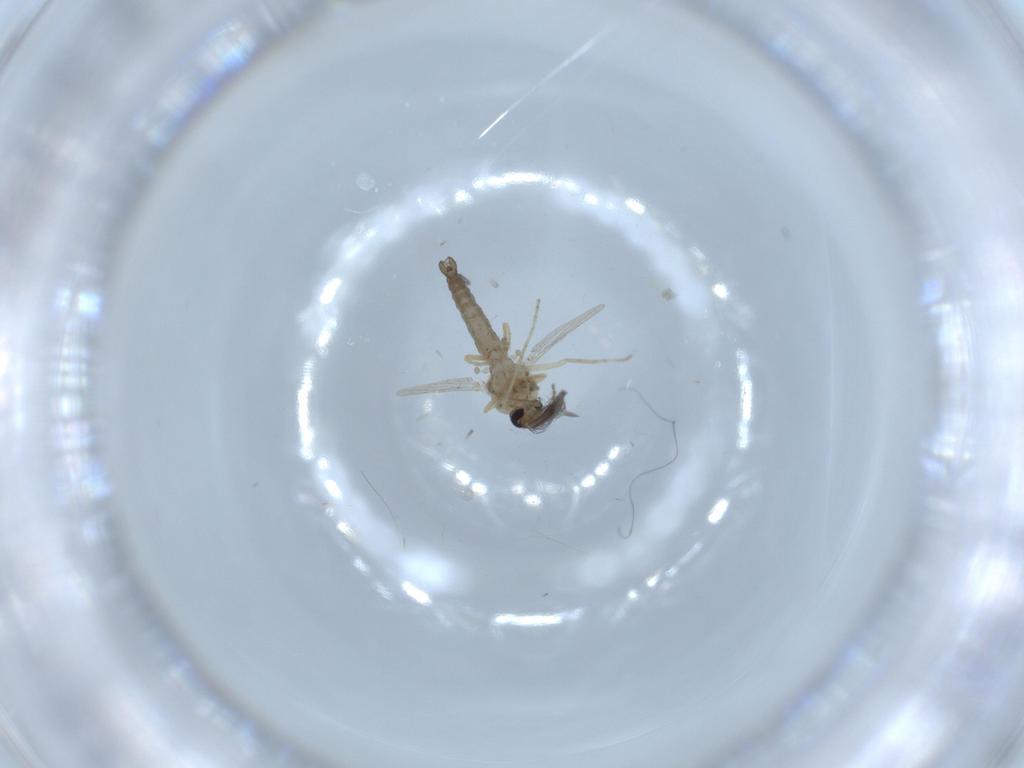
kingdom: Animalia
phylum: Arthropoda
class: Insecta
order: Diptera
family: Ceratopogonidae
